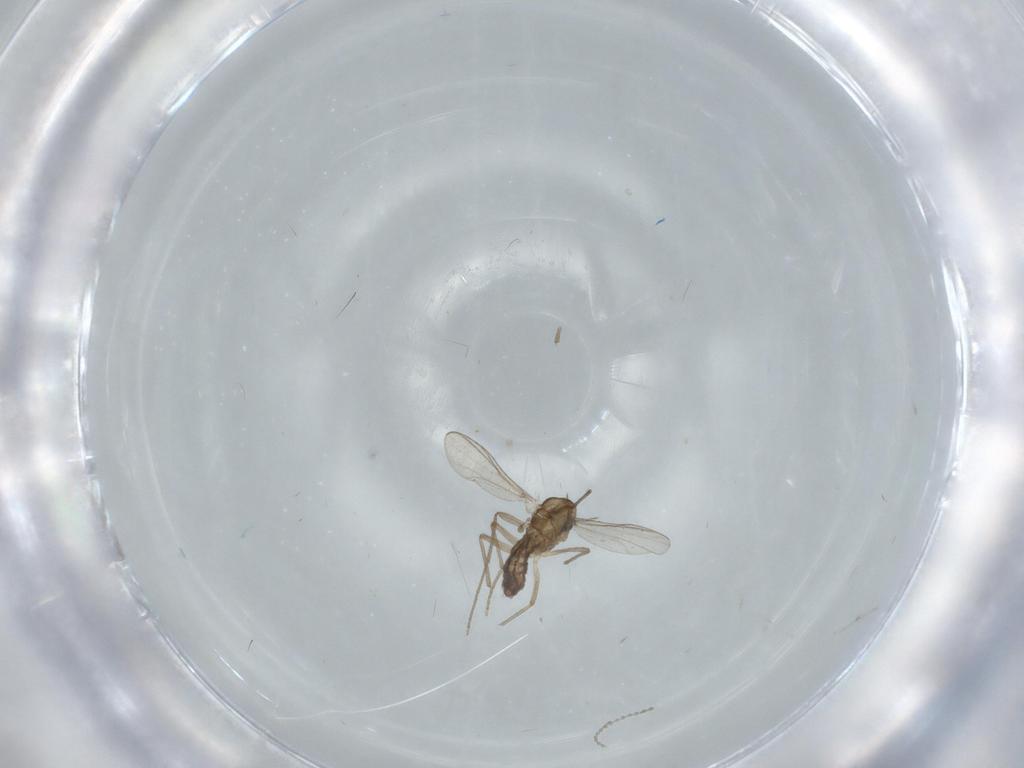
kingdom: Animalia
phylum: Arthropoda
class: Insecta
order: Diptera
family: Chironomidae
